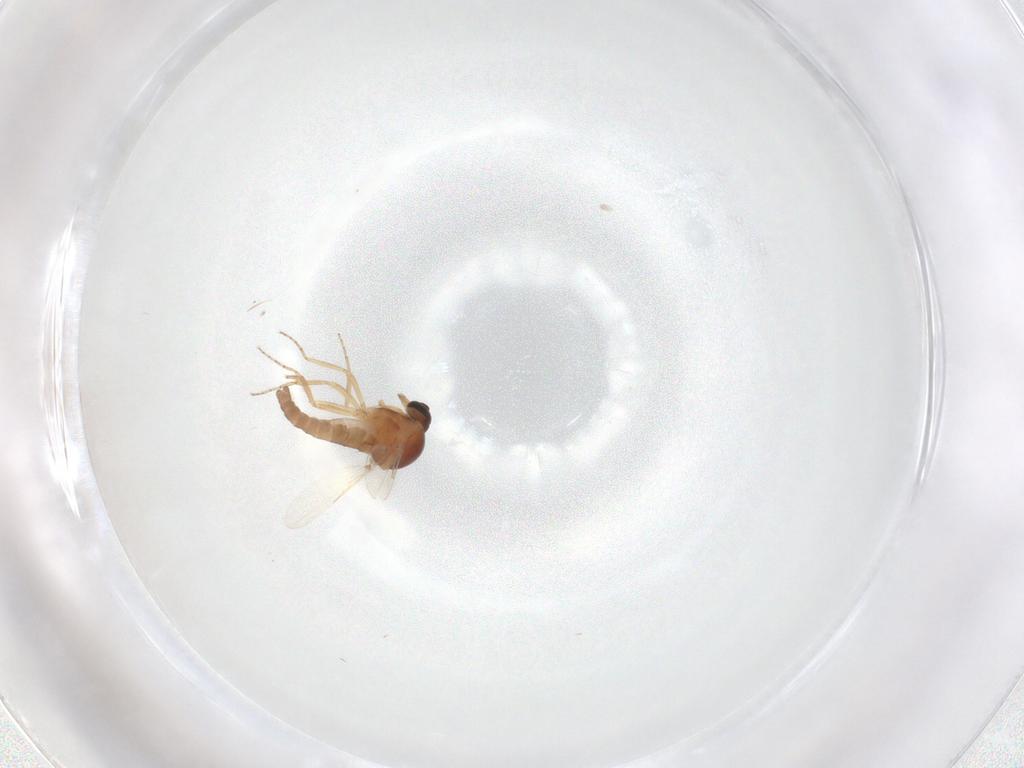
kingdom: Animalia
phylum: Arthropoda
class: Insecta
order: Diptera
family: Ceratopogonidae
